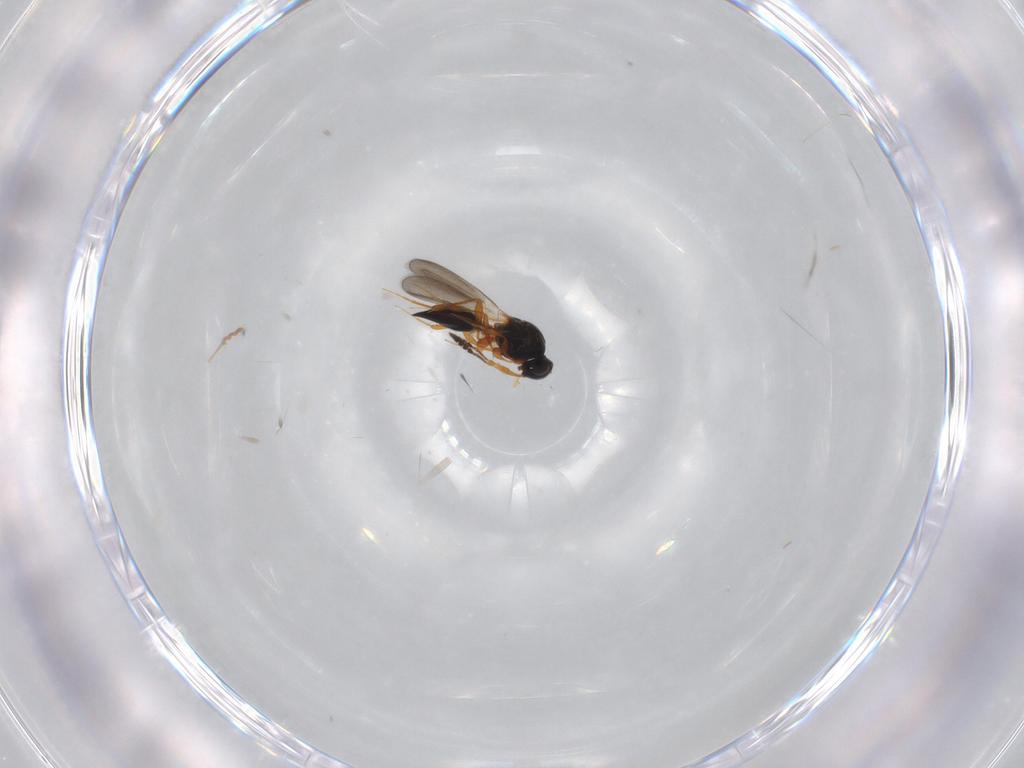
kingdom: Animalia
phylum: Arthropoda
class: Insecta
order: Hymenoptera
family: Platygastridae
